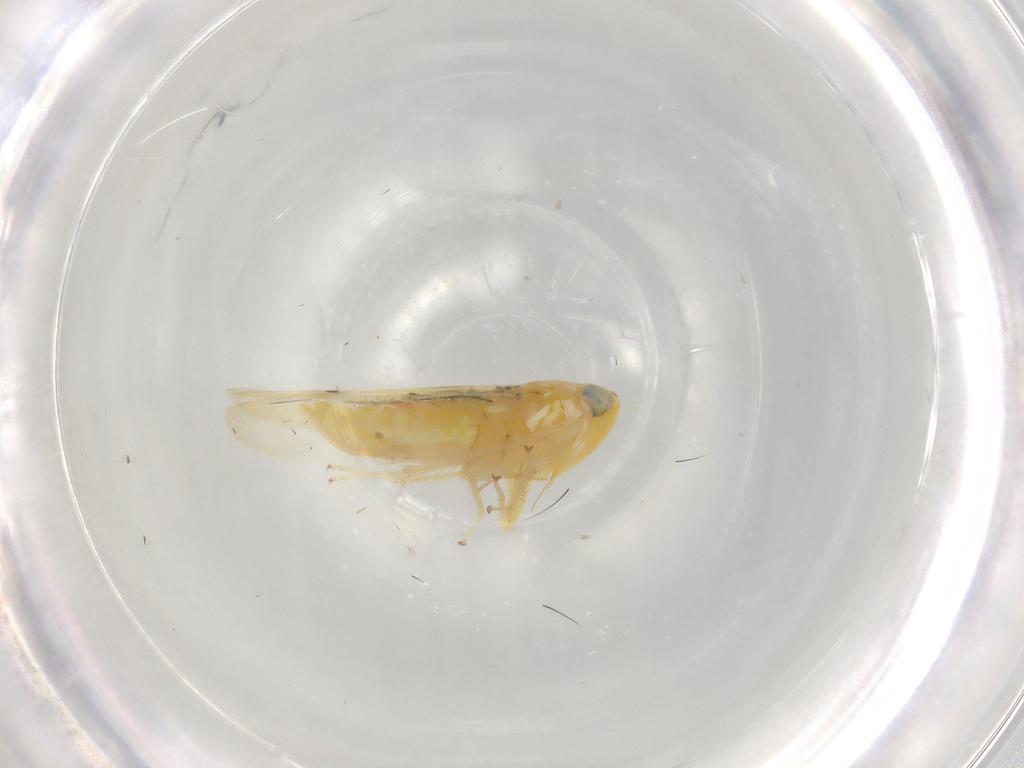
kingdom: Animalia
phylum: Arthropoda
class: Insecta
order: Hemiptera
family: Cicadellidae
